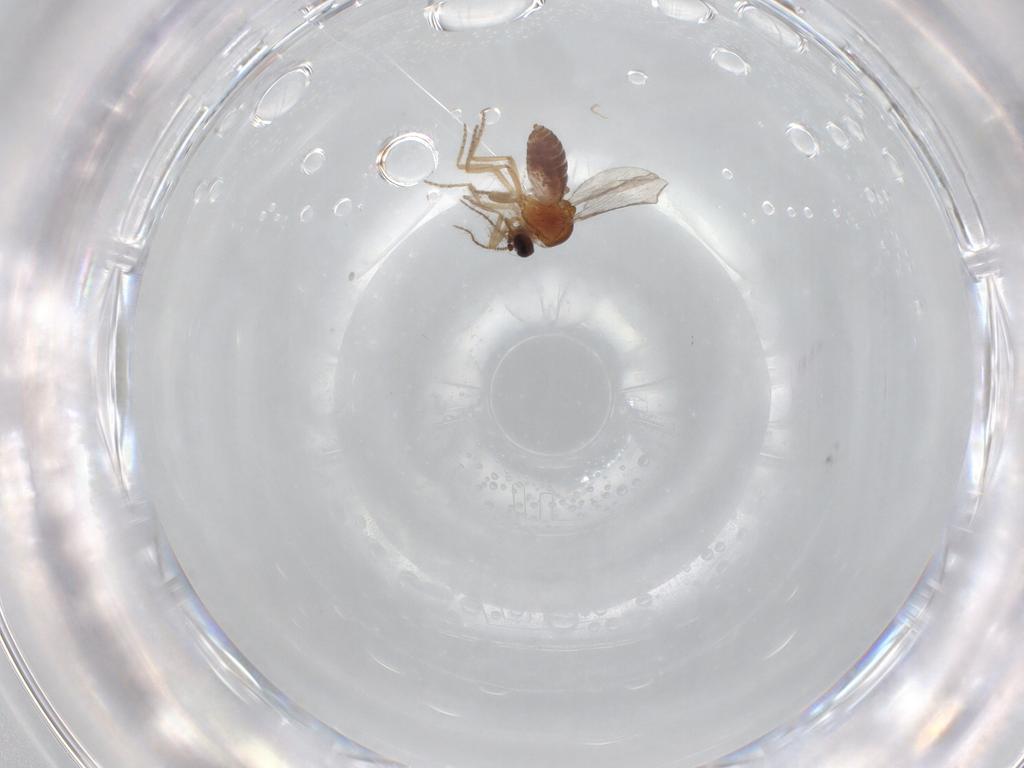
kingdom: Animalia
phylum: Arthropoda
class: Insecta
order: Diptera
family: Ceratopogonidae
